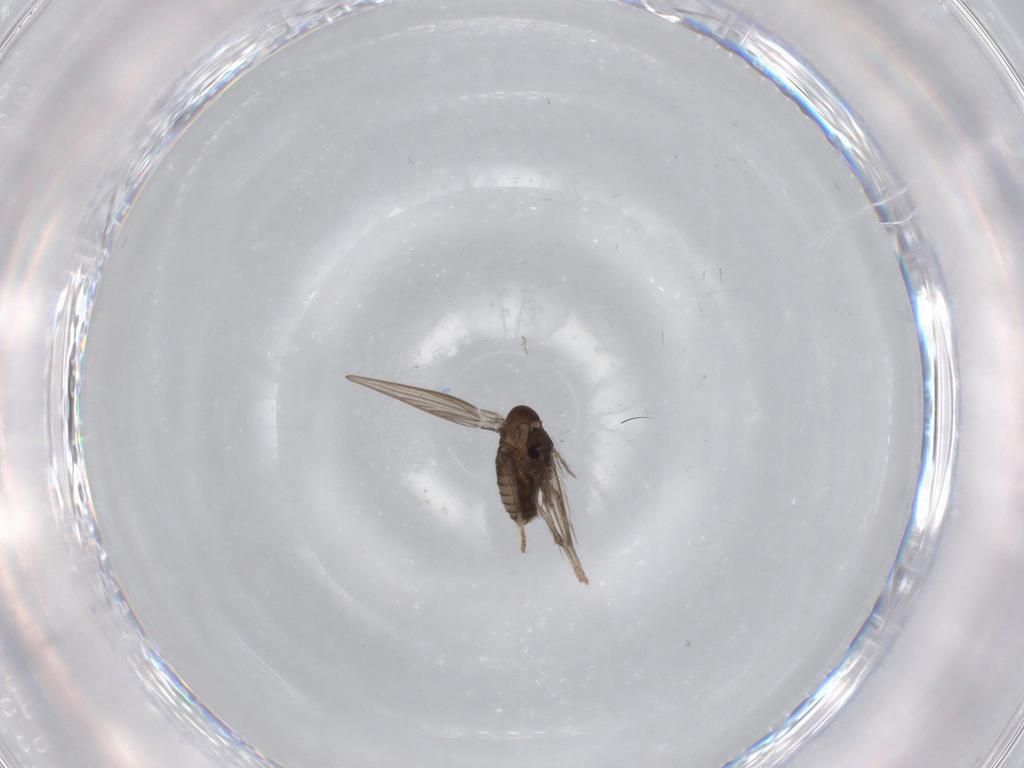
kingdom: Animalia
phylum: Arthropoda
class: Insecta
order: Diptera
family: Psychodidae
